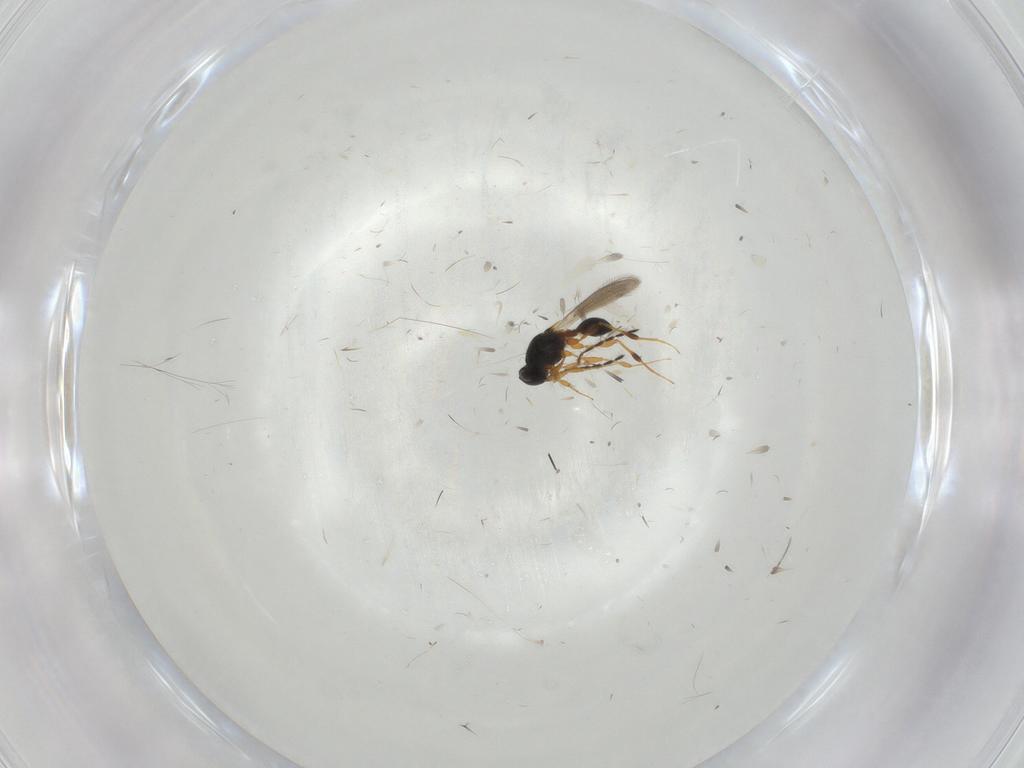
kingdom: Animalia
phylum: Arthropoda
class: Insecta
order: Hymenoptera
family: Platygastridae
